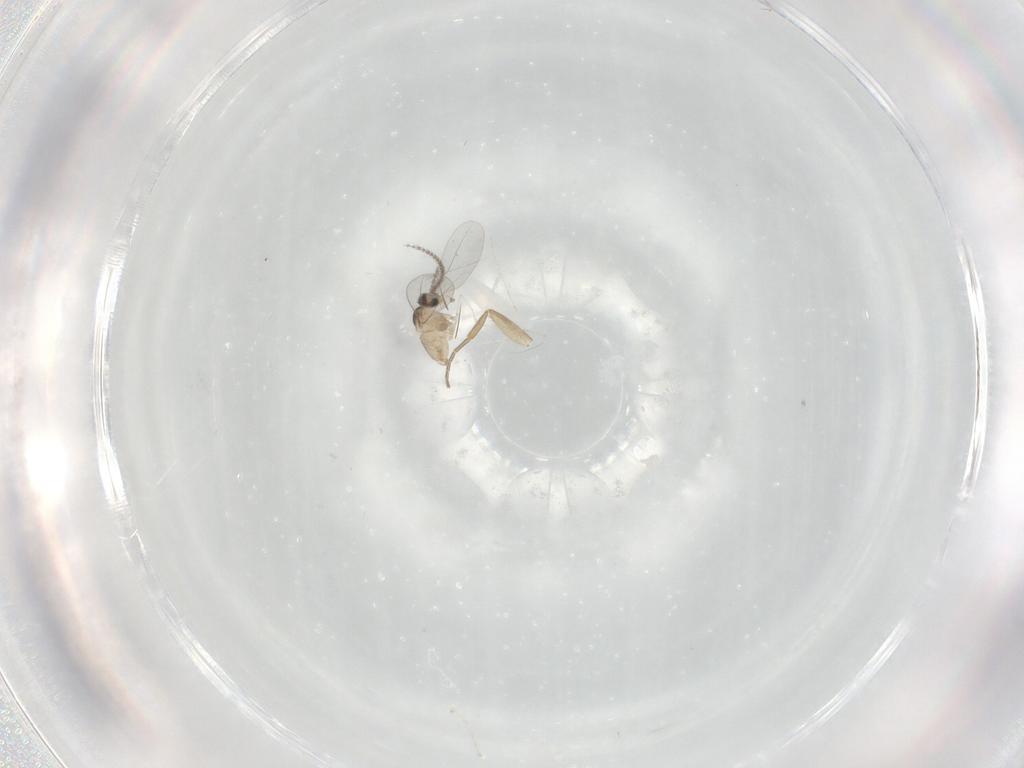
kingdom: Animalia
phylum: Arthropoda
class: Insecta
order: Diptera
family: Cecidomyiidae
